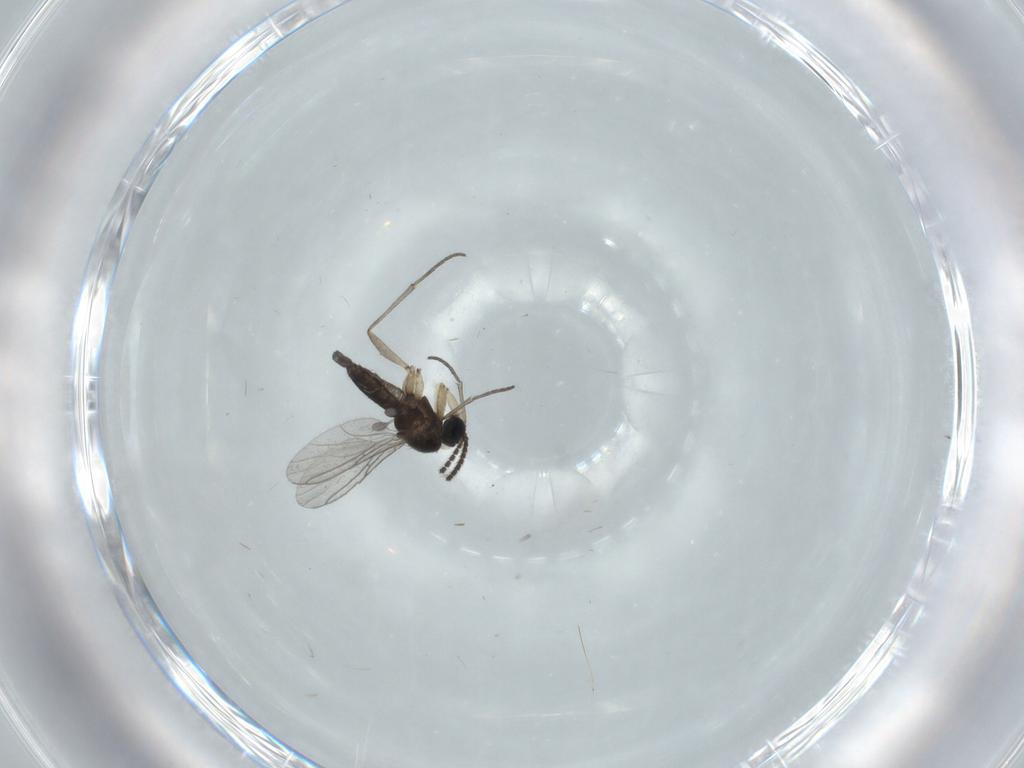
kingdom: Animalia
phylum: Arthropoda
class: Insecta
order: Diptera
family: Sciaridae
